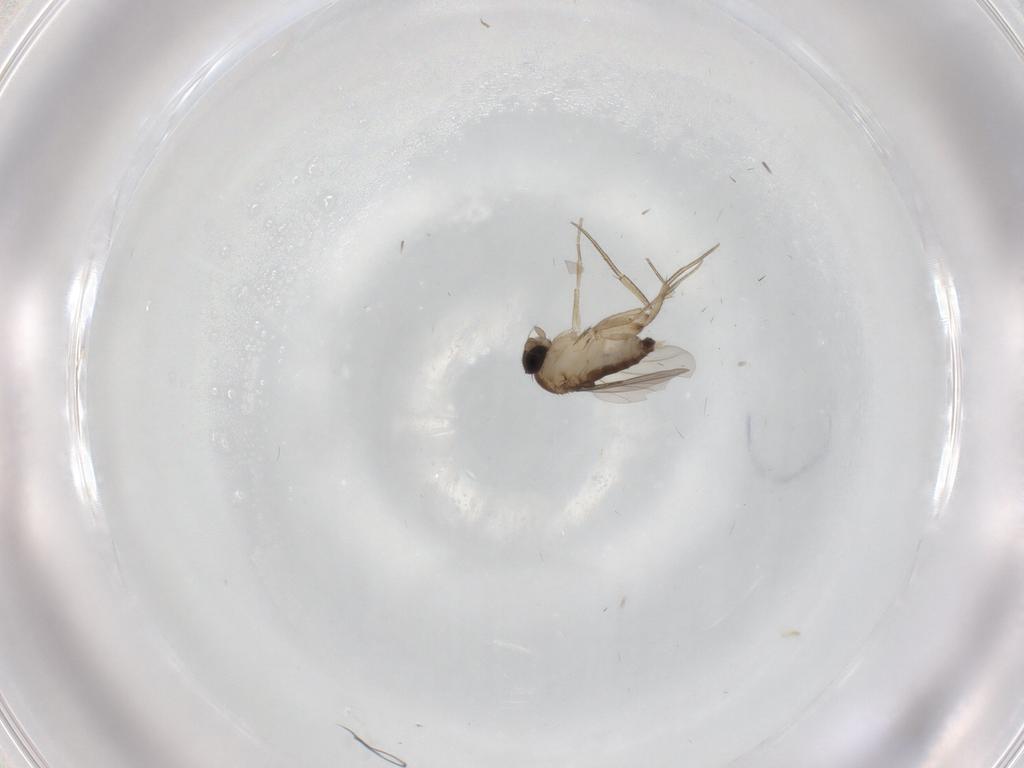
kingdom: Animalia
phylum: Arthropoda
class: Insecta
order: Diptera
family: Phoridae
